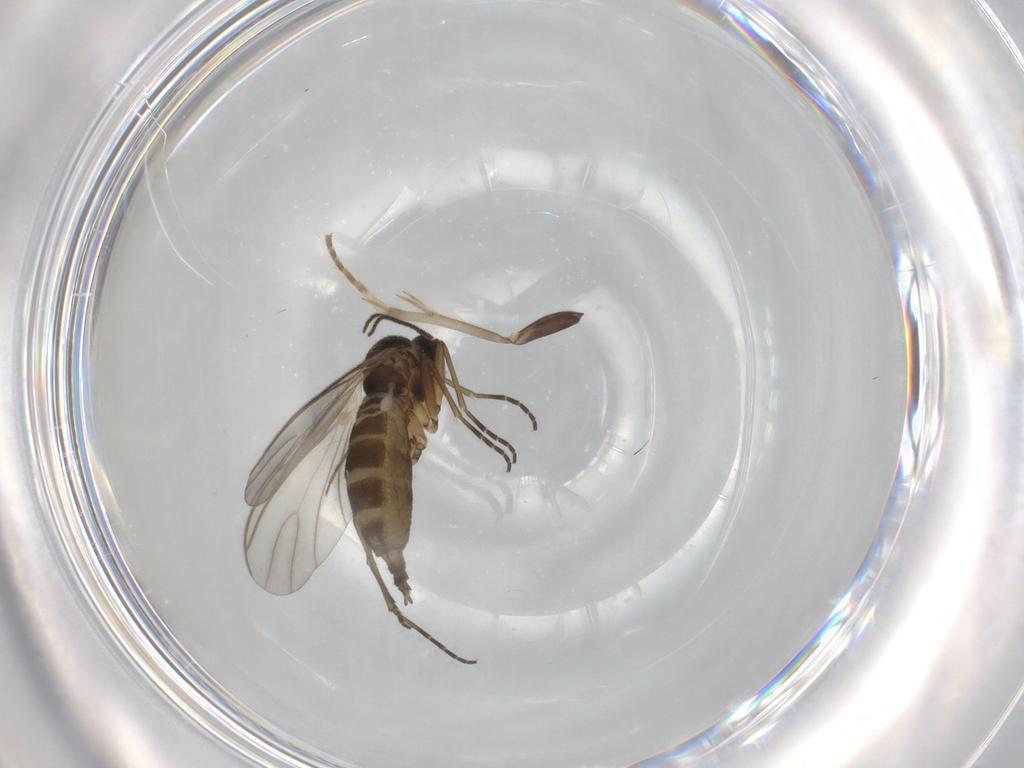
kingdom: Animalia
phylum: Arthropoda
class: Insecta
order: Diptera
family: Chironomidae
